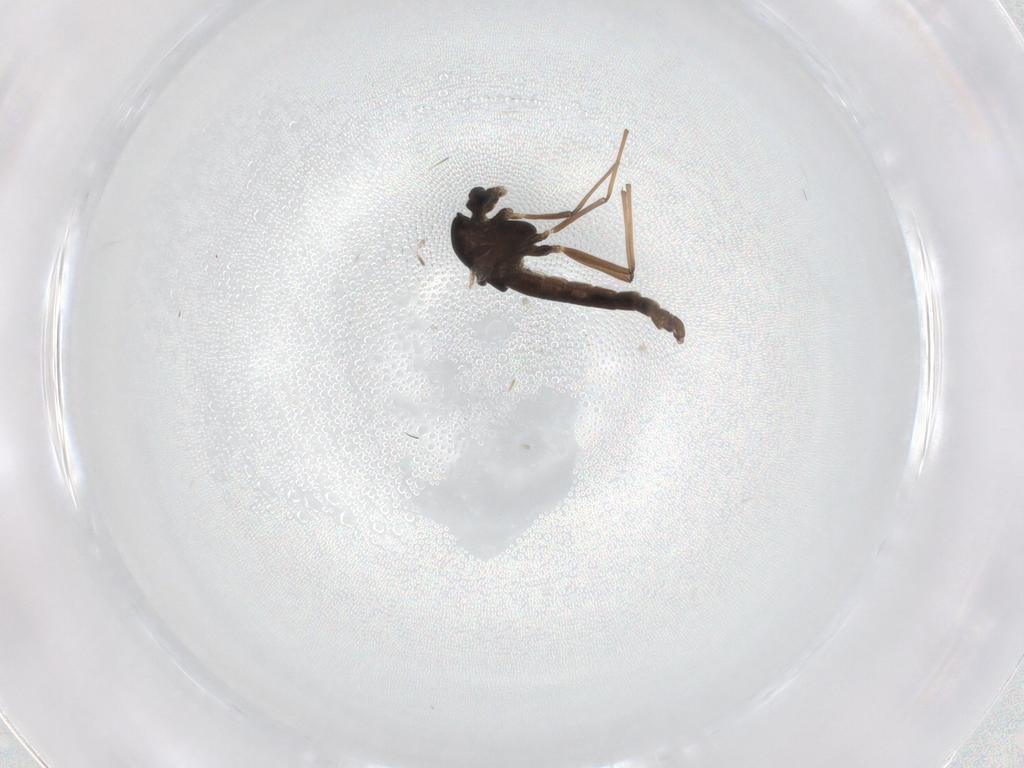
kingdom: Animalia
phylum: Arthropoda
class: Insecta
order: Diptera
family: Chironomidae
